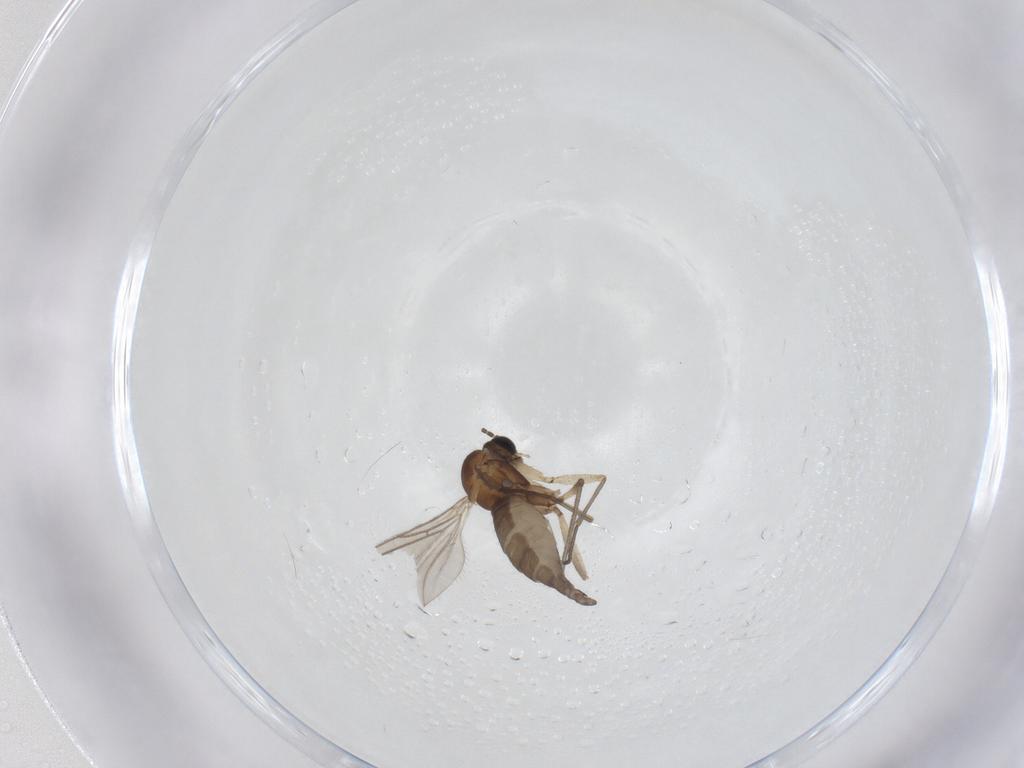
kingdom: Animalia
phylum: Arthropoda
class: Insecta
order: Diptera
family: Sciaridae
